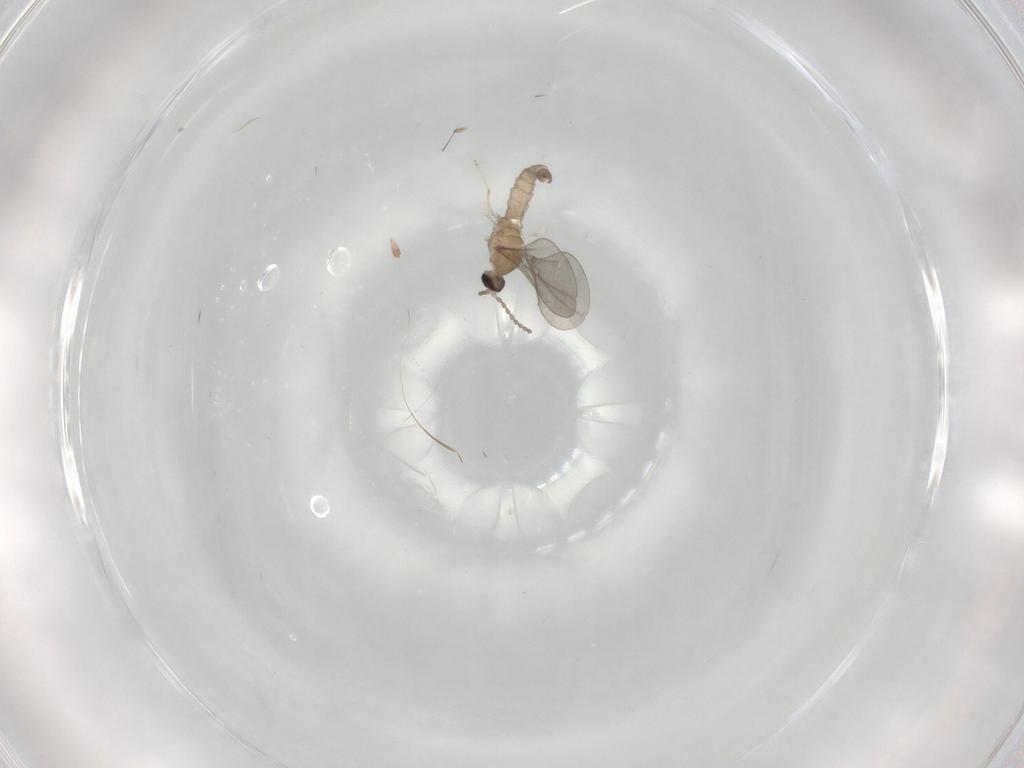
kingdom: Animalia
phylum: Arthropoda
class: Insecta
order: Diptera
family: Cecidomyiidae
